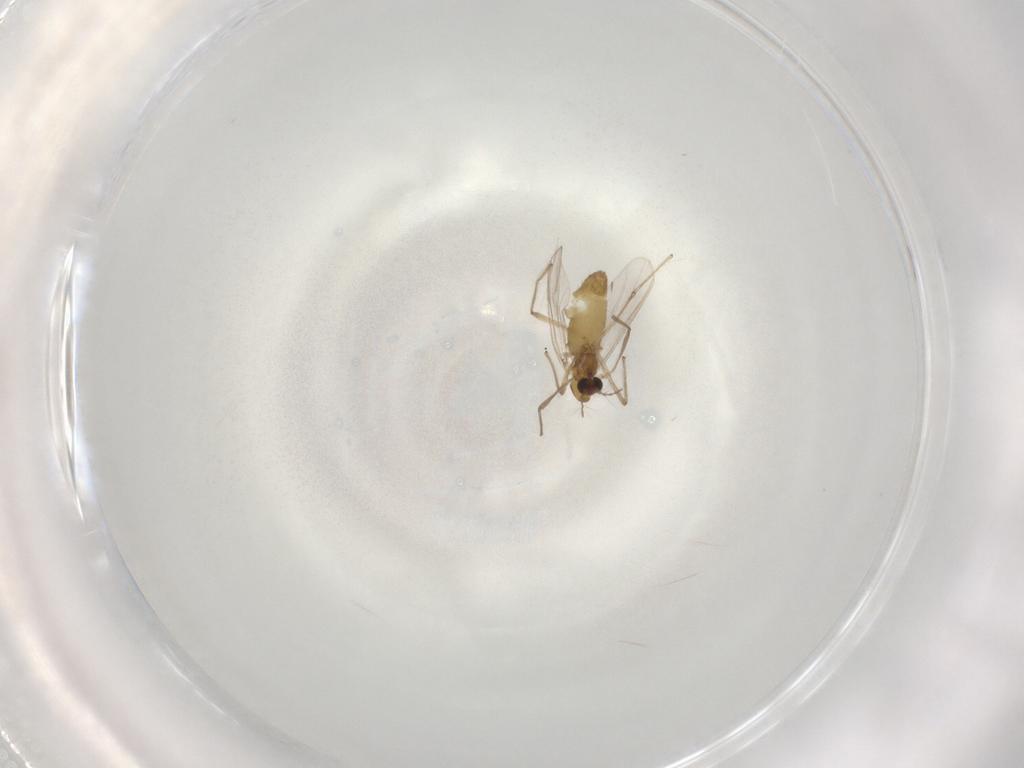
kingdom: Animalia
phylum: Arthropoda
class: Insecta
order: Diptera
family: Chironomidae
